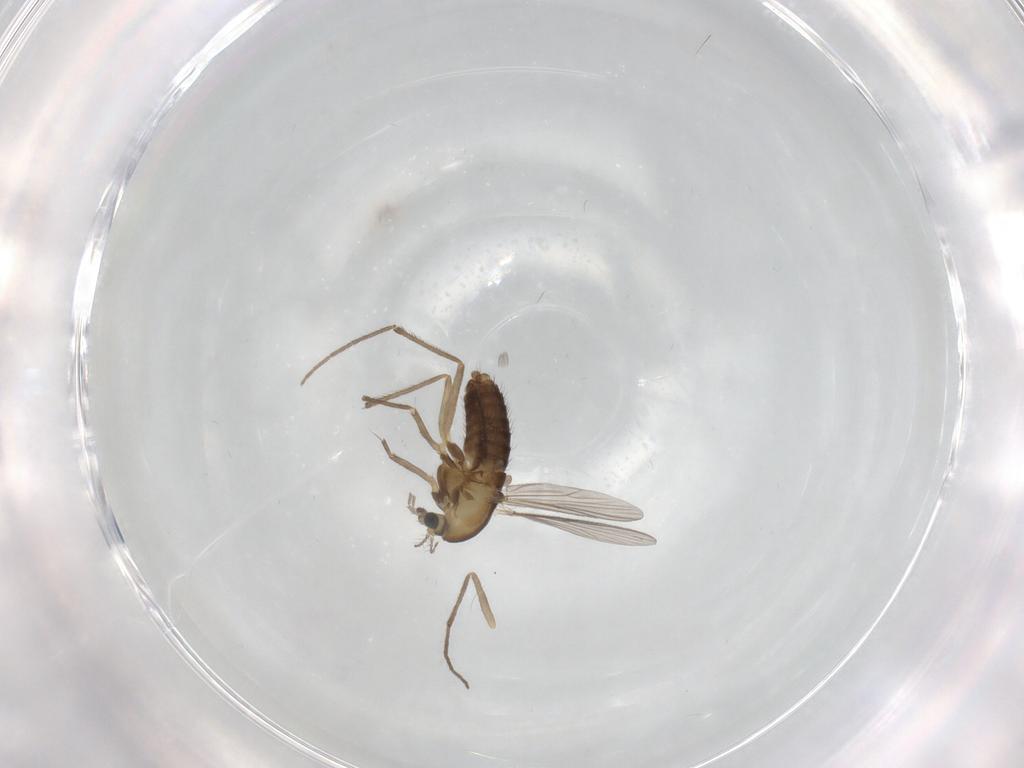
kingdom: Animalia
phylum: Arthropoda
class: Insecta
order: Diptera
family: Chironomidae
